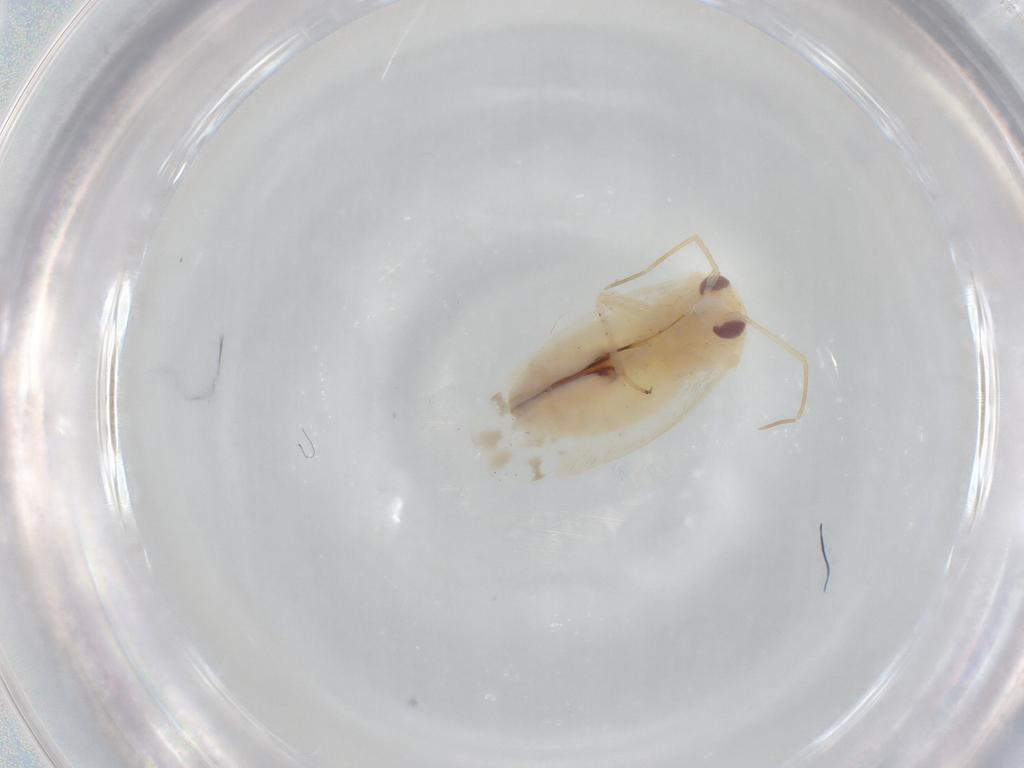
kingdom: Animalia
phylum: Arthropoda
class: Insecta
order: Hemiptera
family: Miridae
